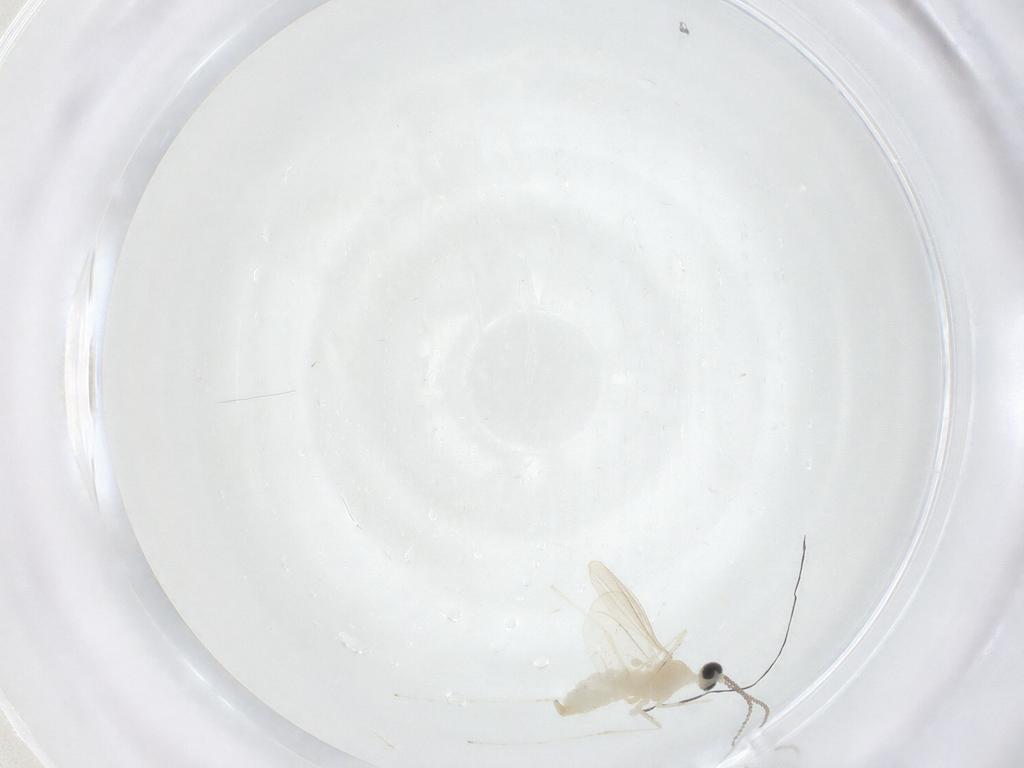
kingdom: Animalia
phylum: Arthropoda
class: Insecta
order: Diptera
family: Cecidomyiidae
